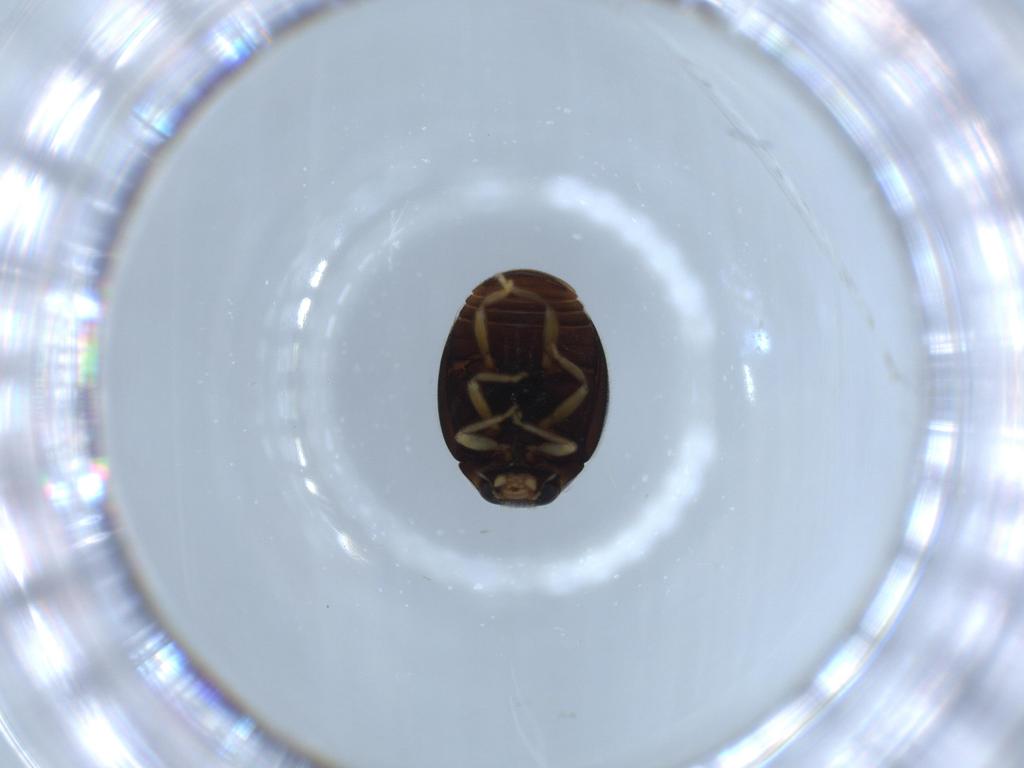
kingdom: Animalia
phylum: Arthropoda
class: Insecta
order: Coleoptera
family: Coccinellidae
